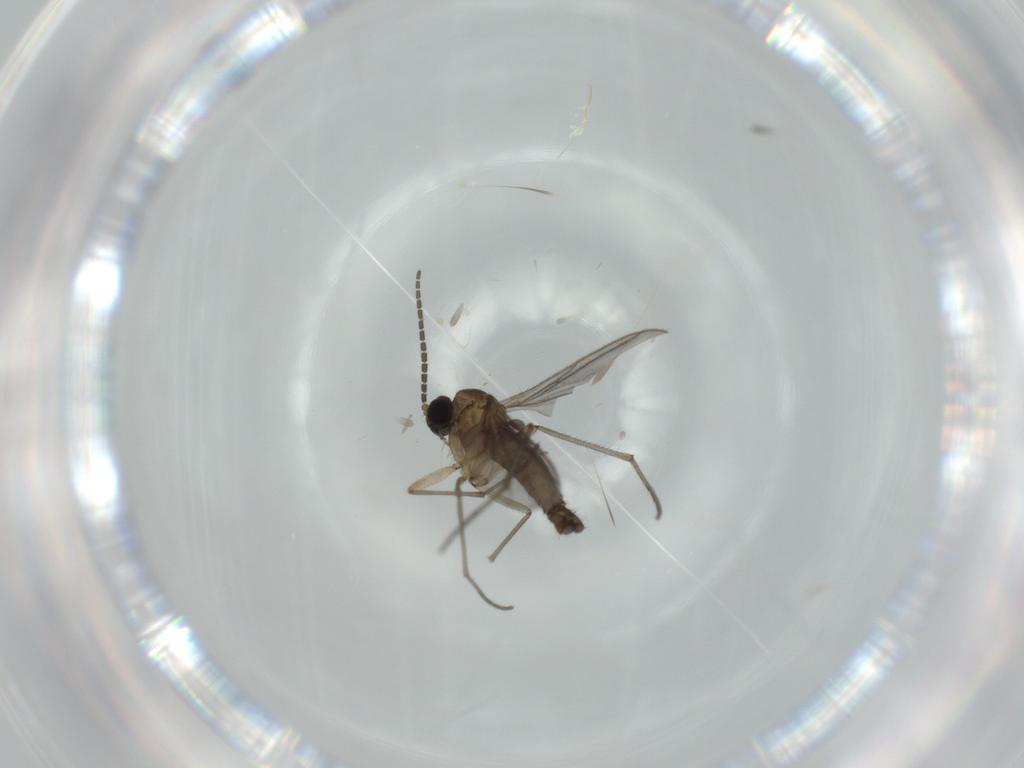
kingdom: Animalia
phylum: Arthropoda
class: Insecta
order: Diptera
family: Sciaridae
